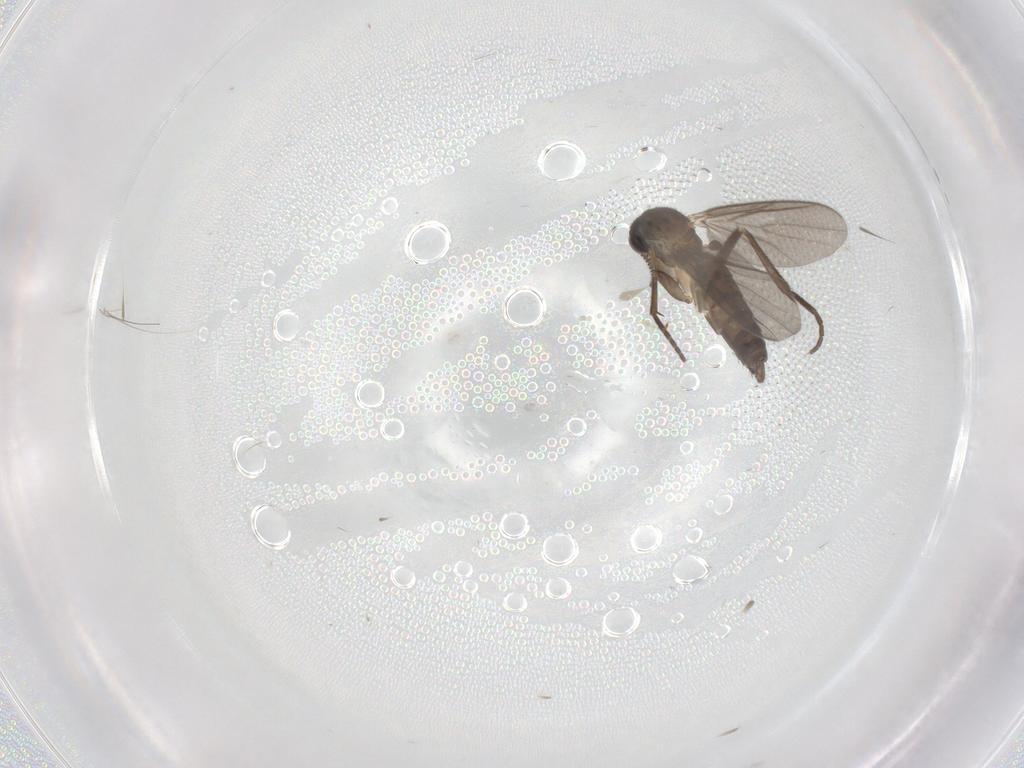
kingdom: Animalia
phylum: Arthropoda
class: Insecta
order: Diptera
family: Mycetophilidae
